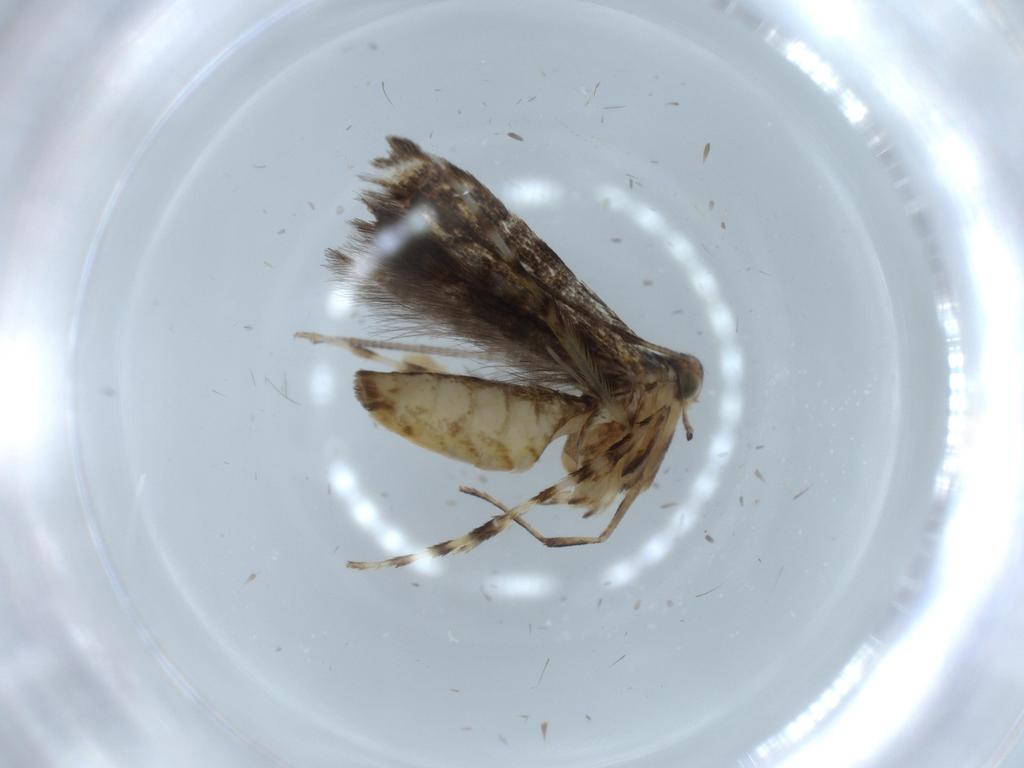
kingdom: Animalia
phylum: Arthropoda
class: Insecta
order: Lepidoptera
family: Gracillariidae
